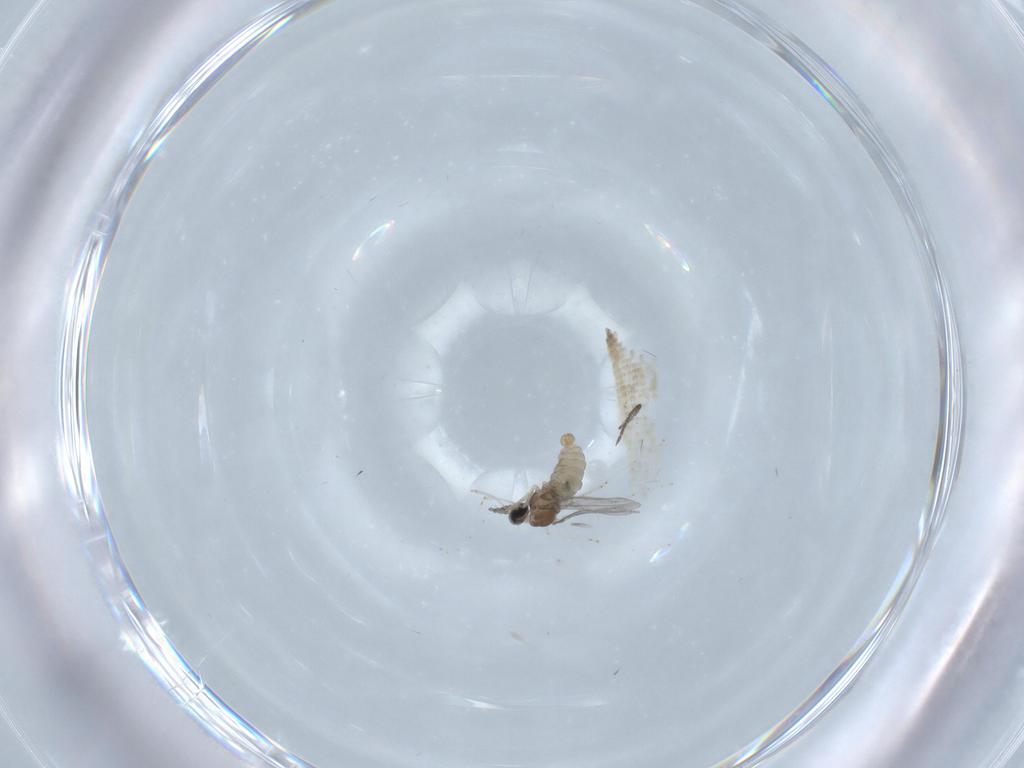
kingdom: Animalia
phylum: Arthropoda
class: Insecta
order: Diptera
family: Cecidomyiidae
